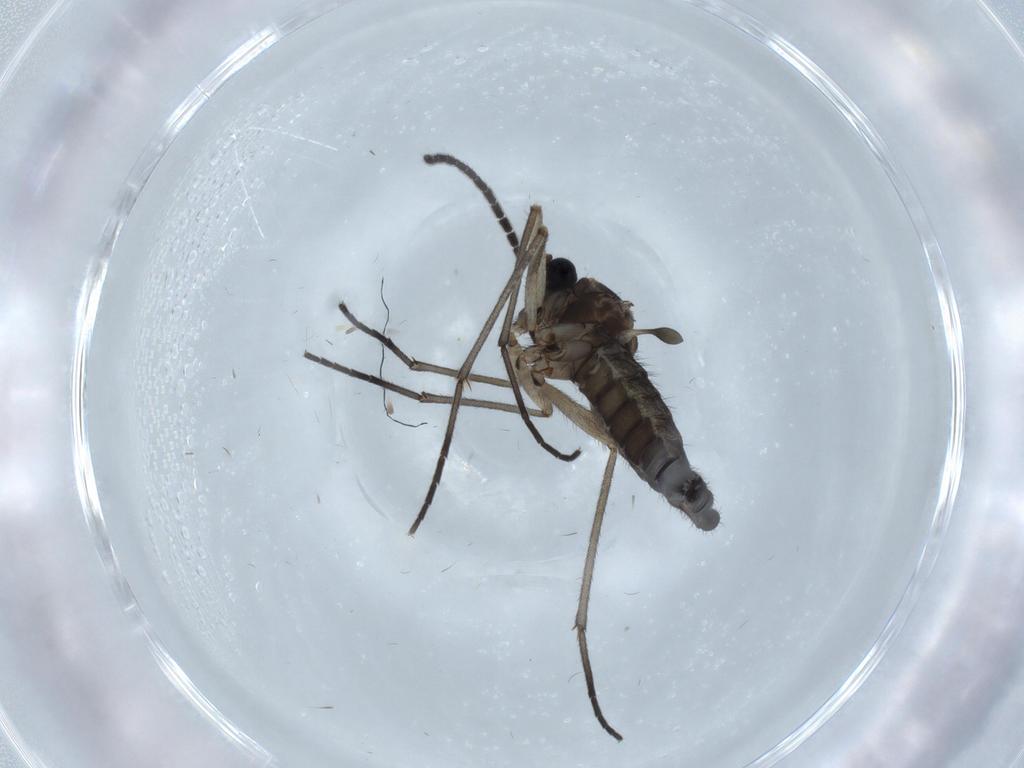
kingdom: Animalia
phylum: Arthropoda
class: Insecta
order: Diptera
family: Sciaridae
